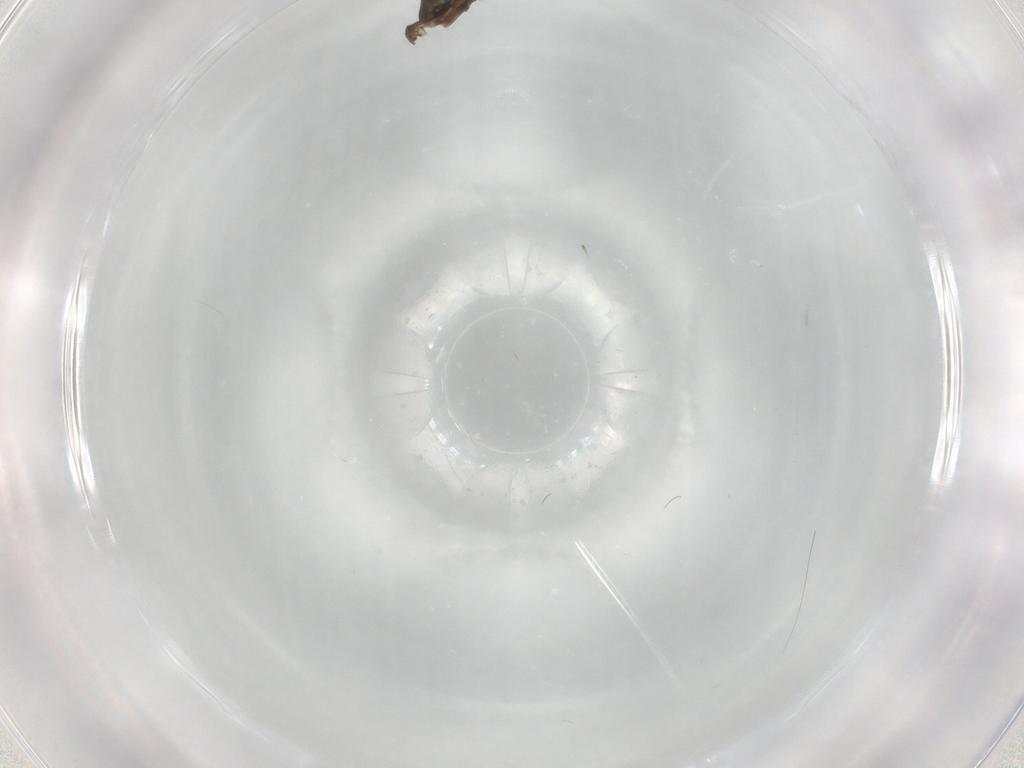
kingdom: Animalia
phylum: Arthropoda
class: Insecta
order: Diptera
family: Chironomidae
